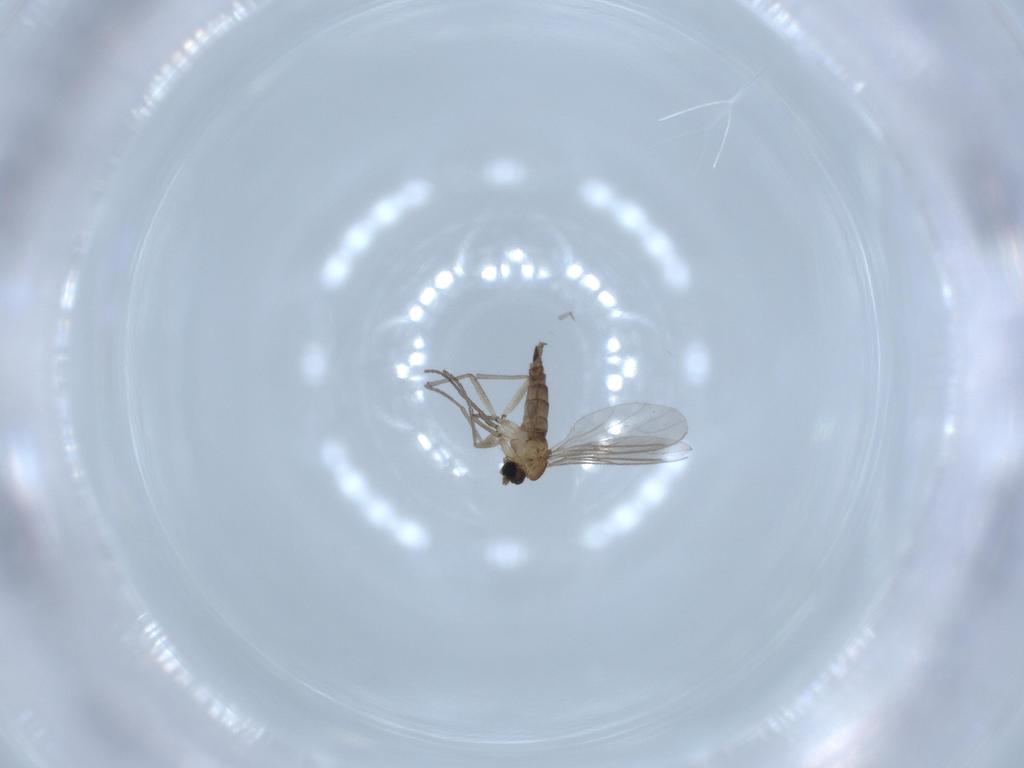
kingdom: Animalia
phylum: Arthropoda
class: Insecta
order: Diptera
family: Sciaridae
